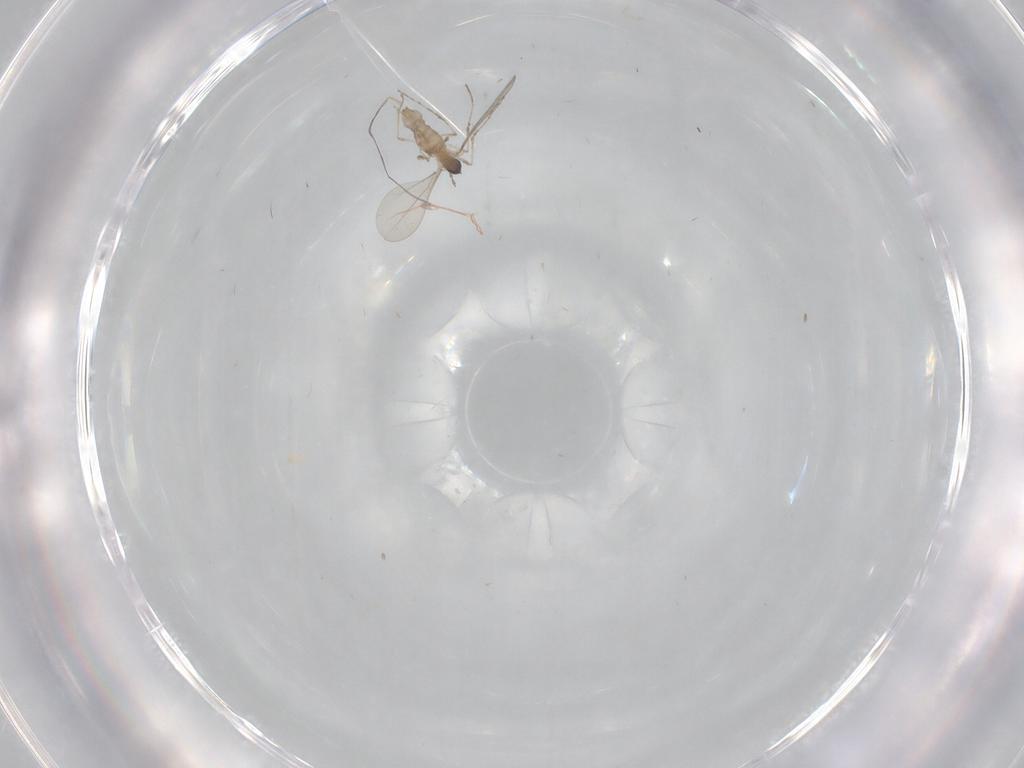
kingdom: Animalia
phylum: Arthropoda
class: Insecta
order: Diptera
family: Cecidomyiidae
